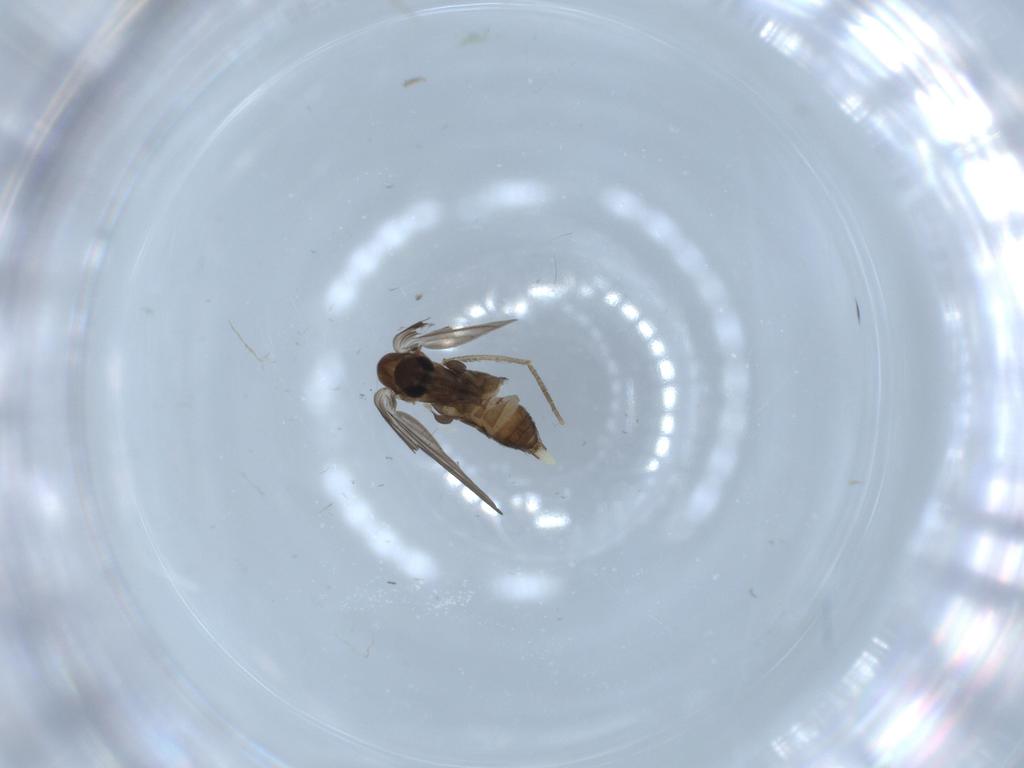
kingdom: Animalia
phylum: Arthropoda
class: Insecta
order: Diptera
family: Psychodidae
